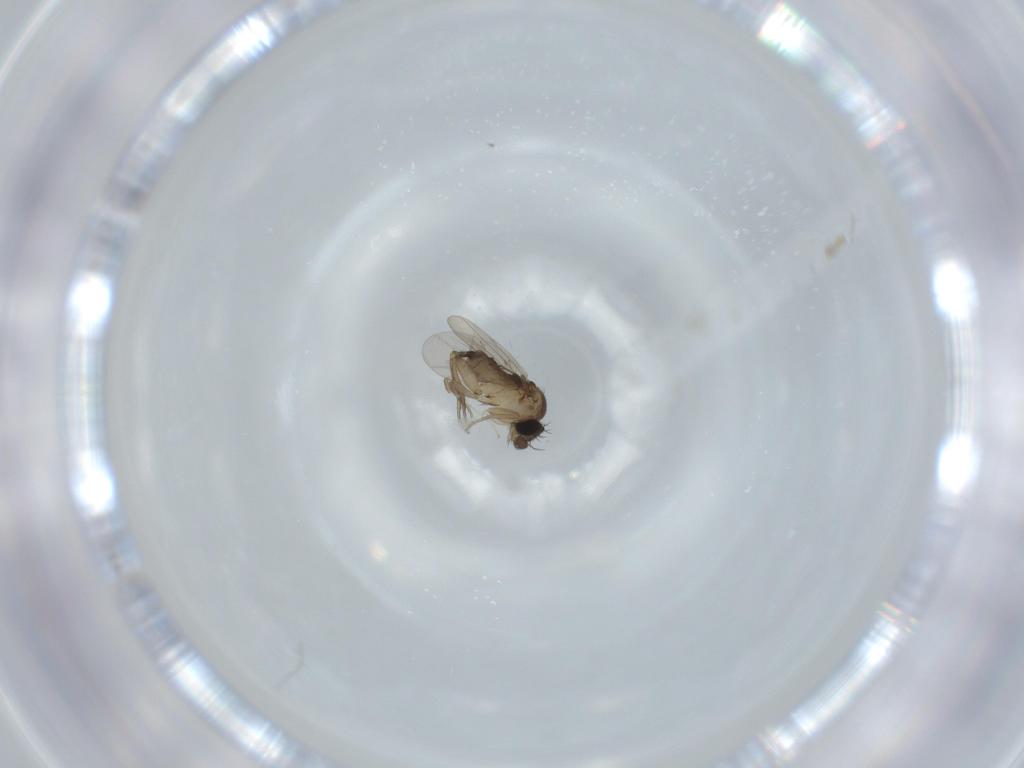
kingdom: Animalia
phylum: Arthropoda
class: Insecta
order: Diptera
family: Phoridae
